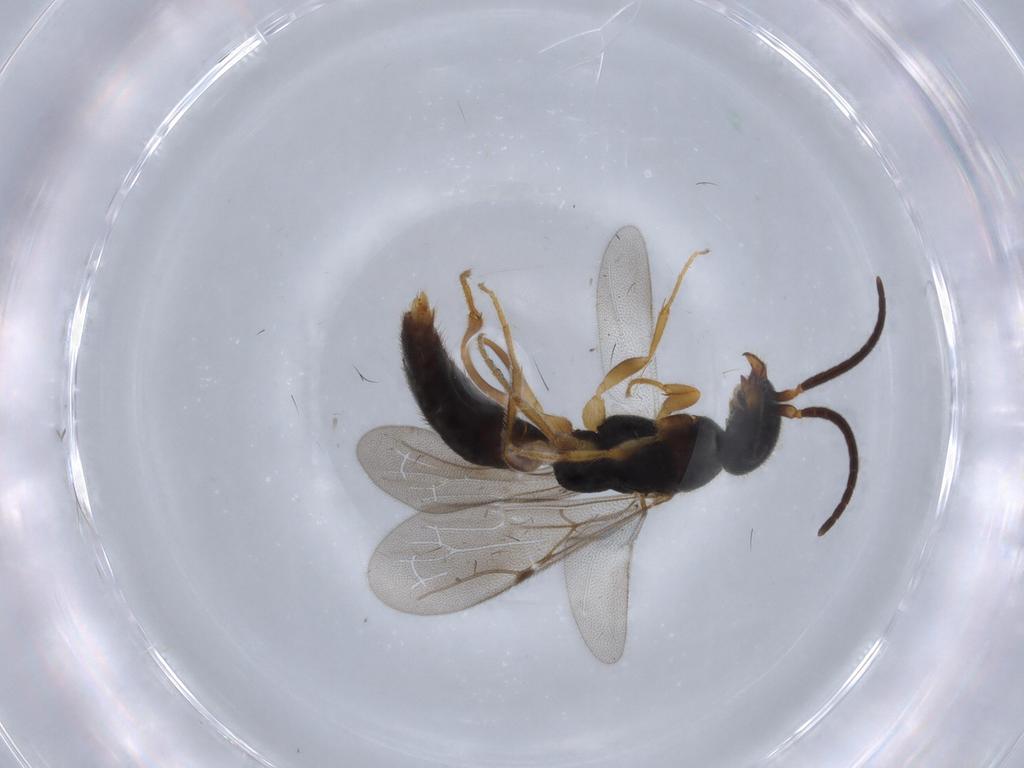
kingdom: Animalia
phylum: Arthropoda
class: Insecta
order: Hymenoptera
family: Bethylidae
